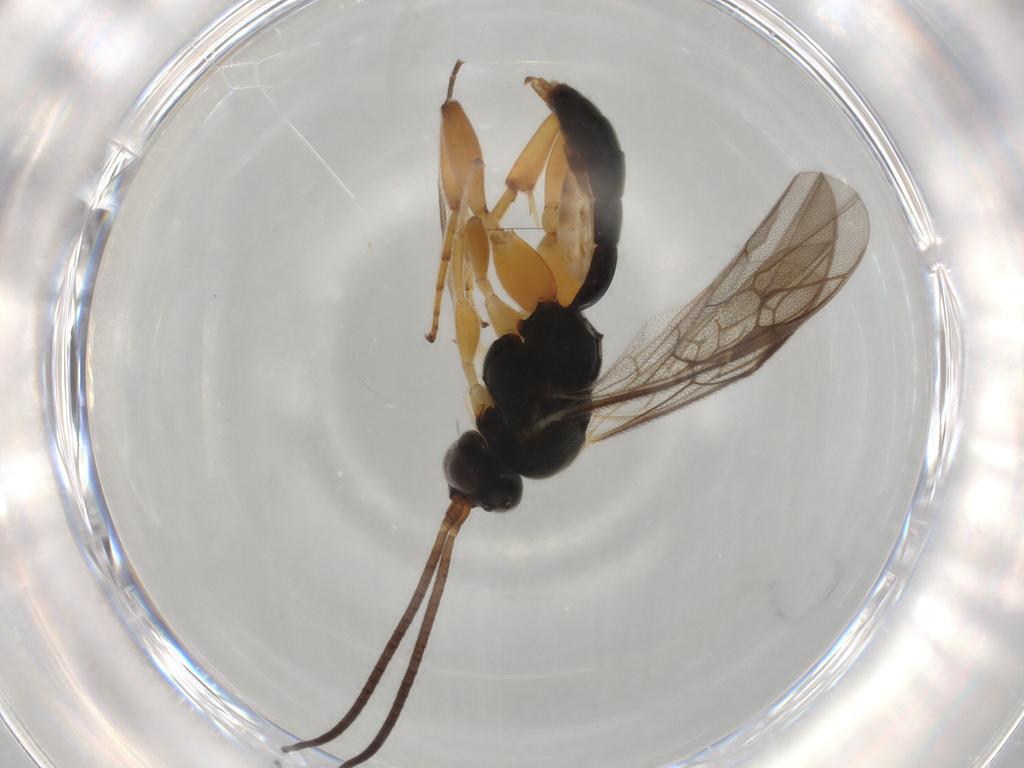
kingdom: Animalia
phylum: Arthropoda
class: Insecta
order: Hymenoptera
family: Ichneumonidae
